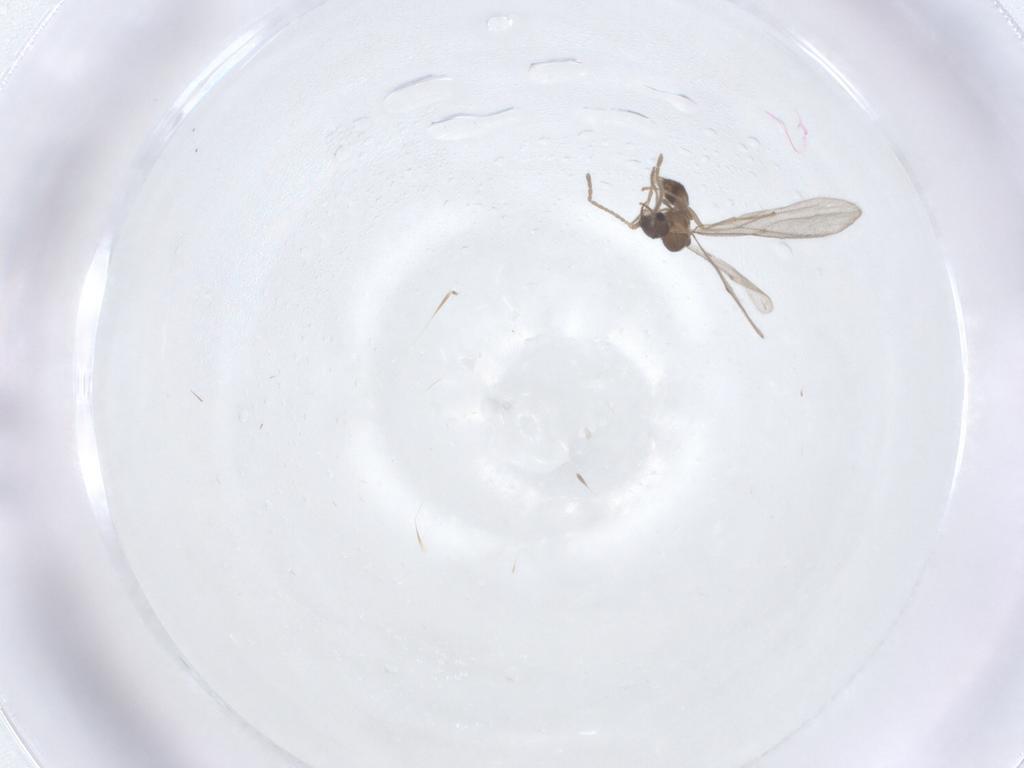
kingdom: Animalia
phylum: Arthropoda
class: Insecta
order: Hymenoptera
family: Formicidae
